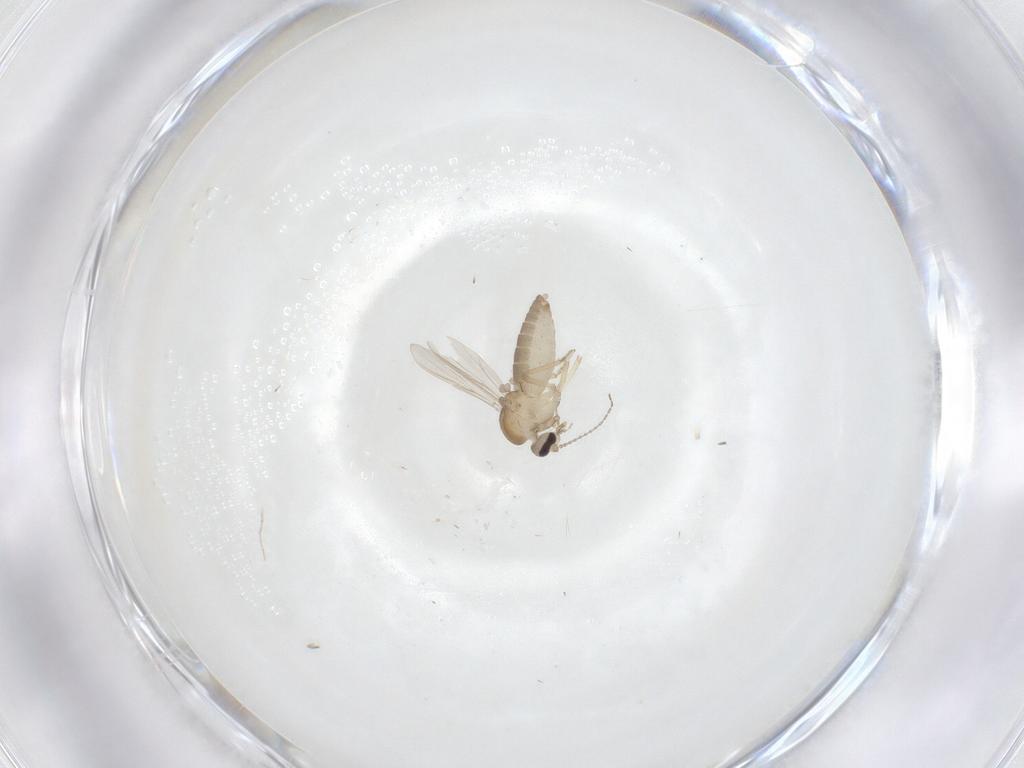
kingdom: Animalia
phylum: Arthropoda
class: Insecta
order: Diptera
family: Ceratopogonidae
